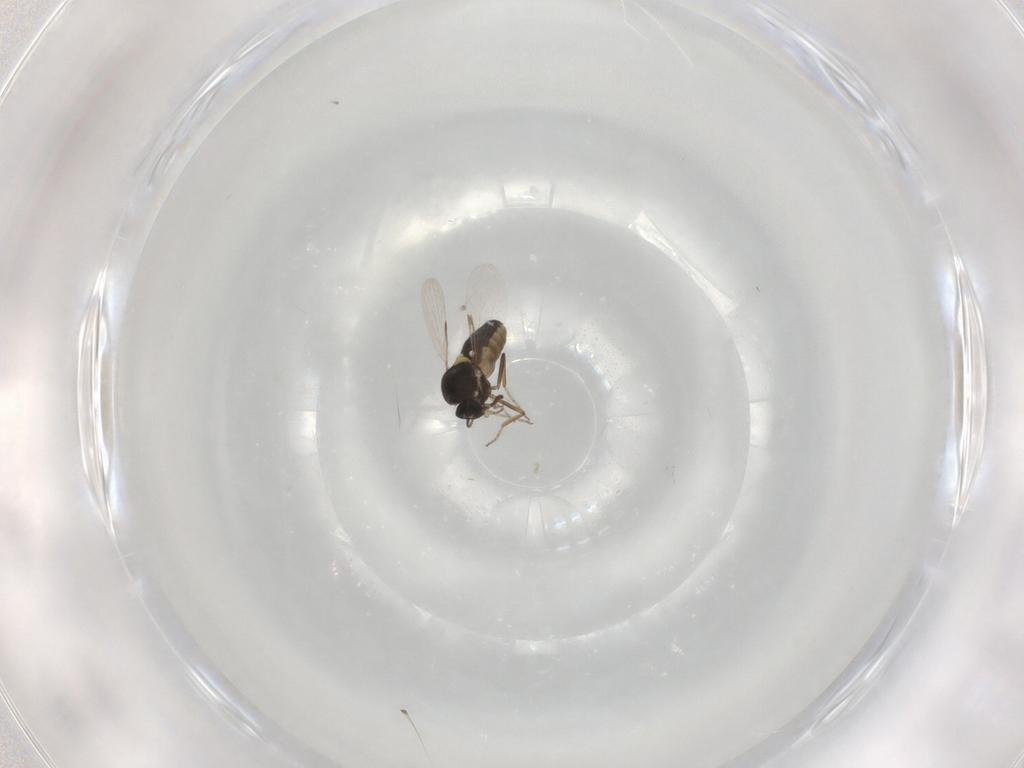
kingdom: Animalia
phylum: Arthropoda
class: Insecta
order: Diptera
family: Ceratopogonidae
